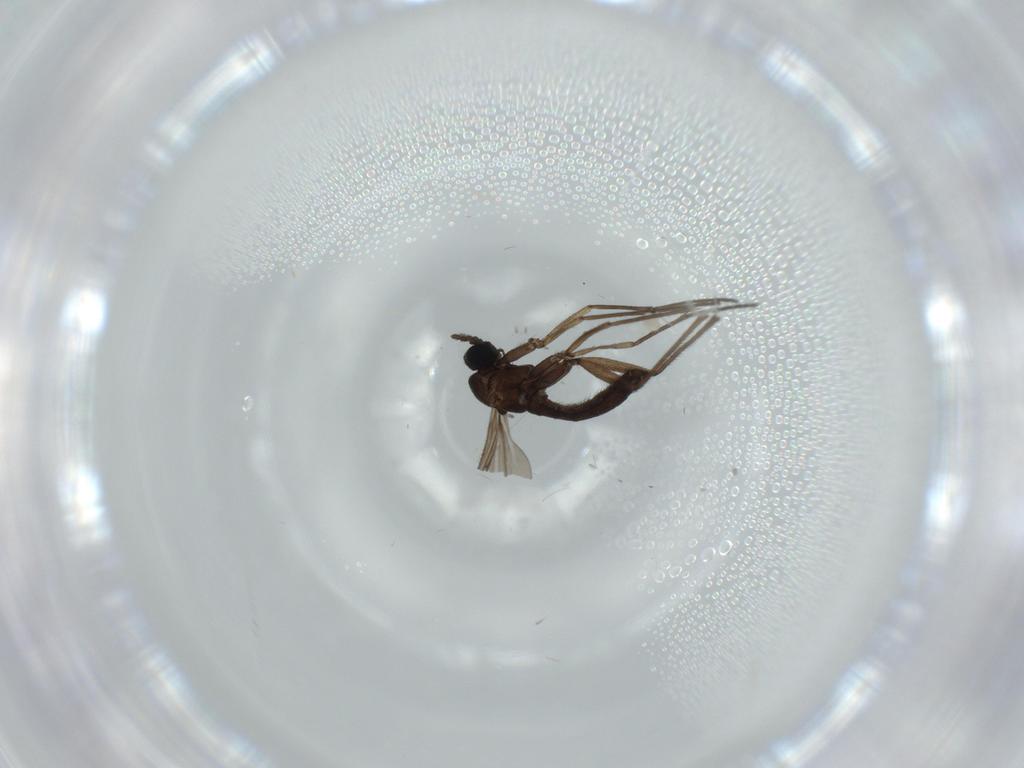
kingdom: Animalia
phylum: Arthropoda
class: Insecta
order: Diptera
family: Sciaridae
